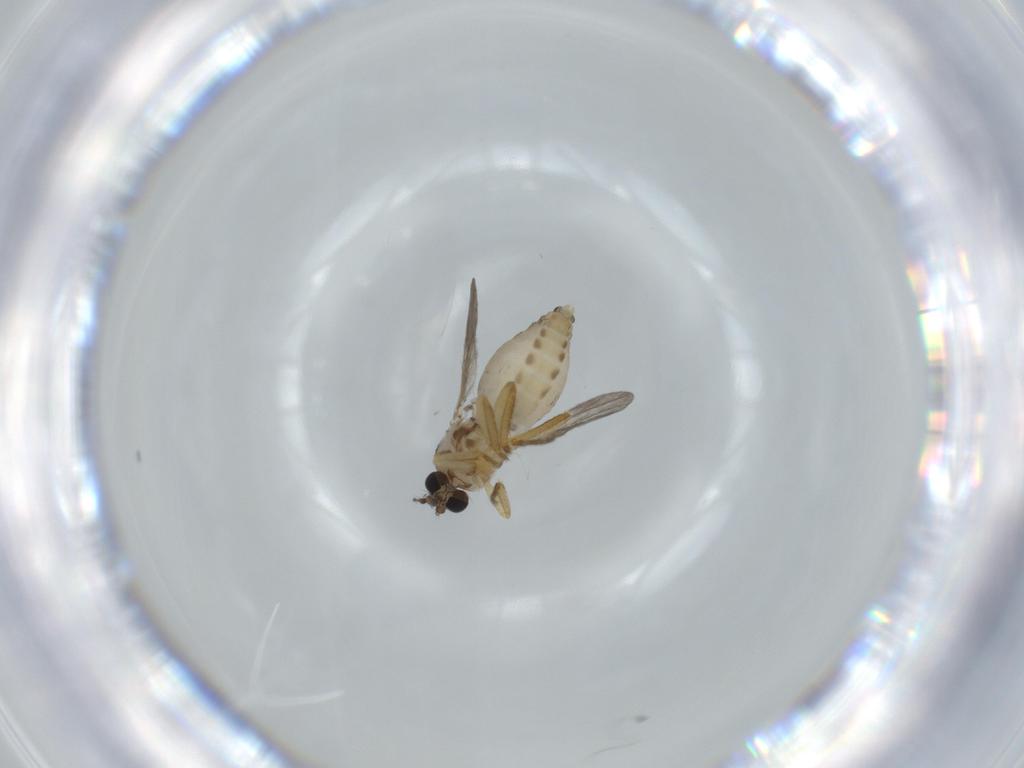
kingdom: Animalia
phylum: Arthropoda
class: Insecta
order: Diptera
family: Ceratopogonidae
